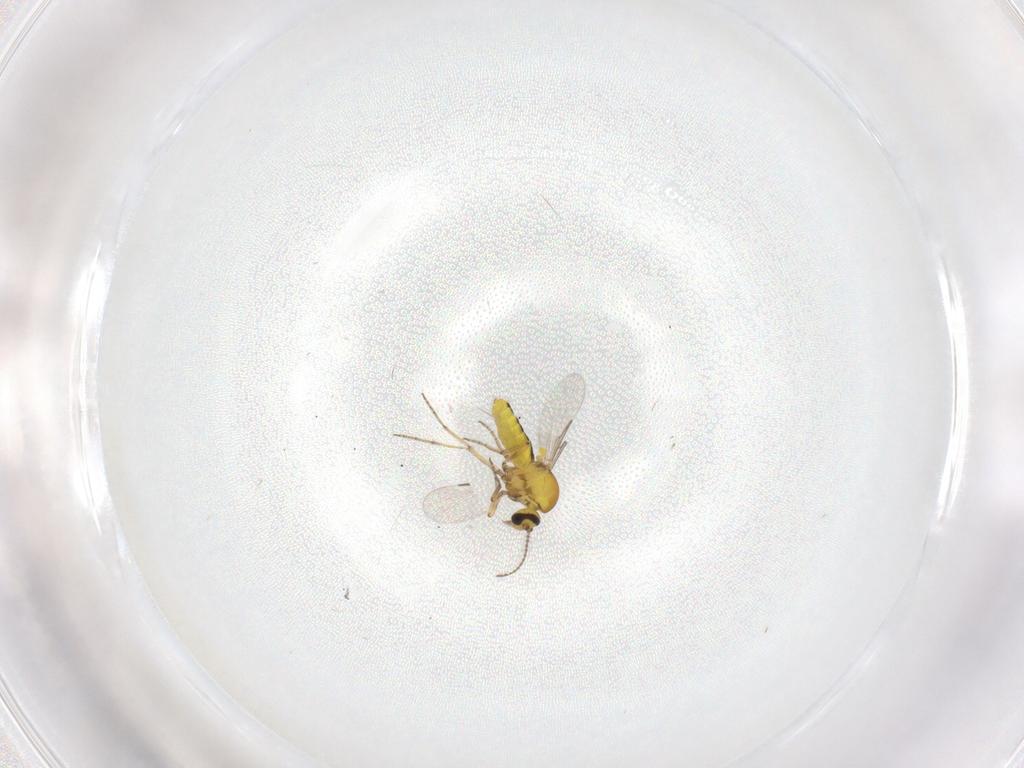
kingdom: Animalia
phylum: Arthropoda
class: Insecta
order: Diptera
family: Ceratopogonidae
